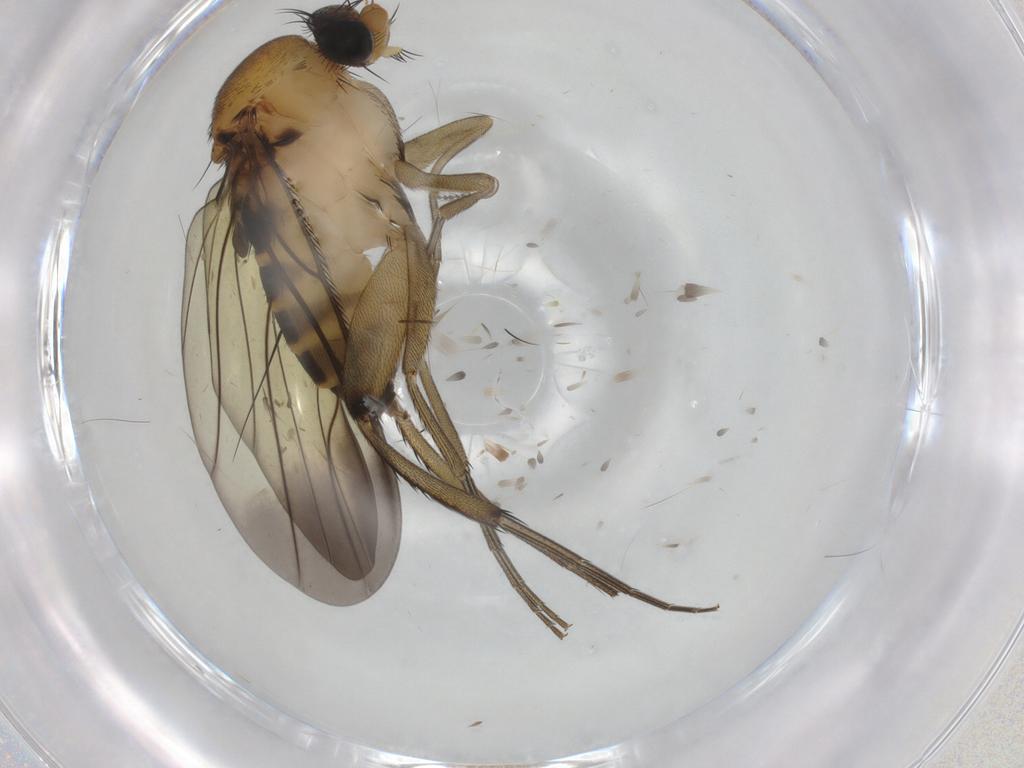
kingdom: Animalia
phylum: Arthropoda
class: Insecta
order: Diptera
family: Phoridae
